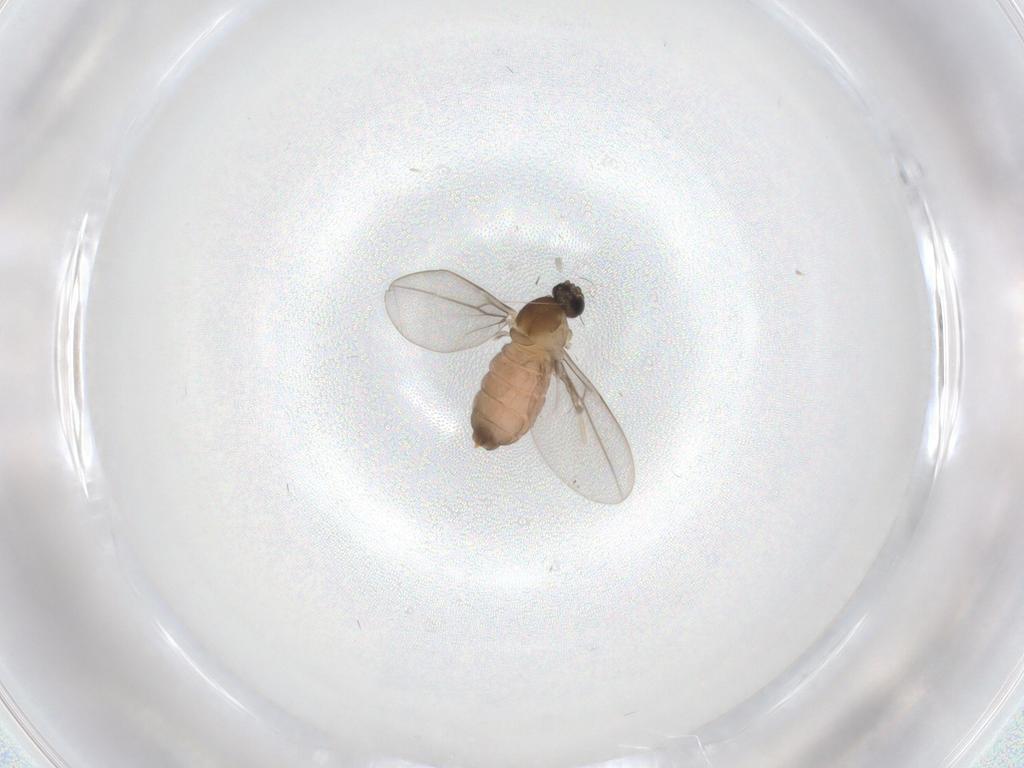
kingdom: Animalia
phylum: Arthropoda
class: Insecta
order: Diptera
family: Cecidomyiidae
